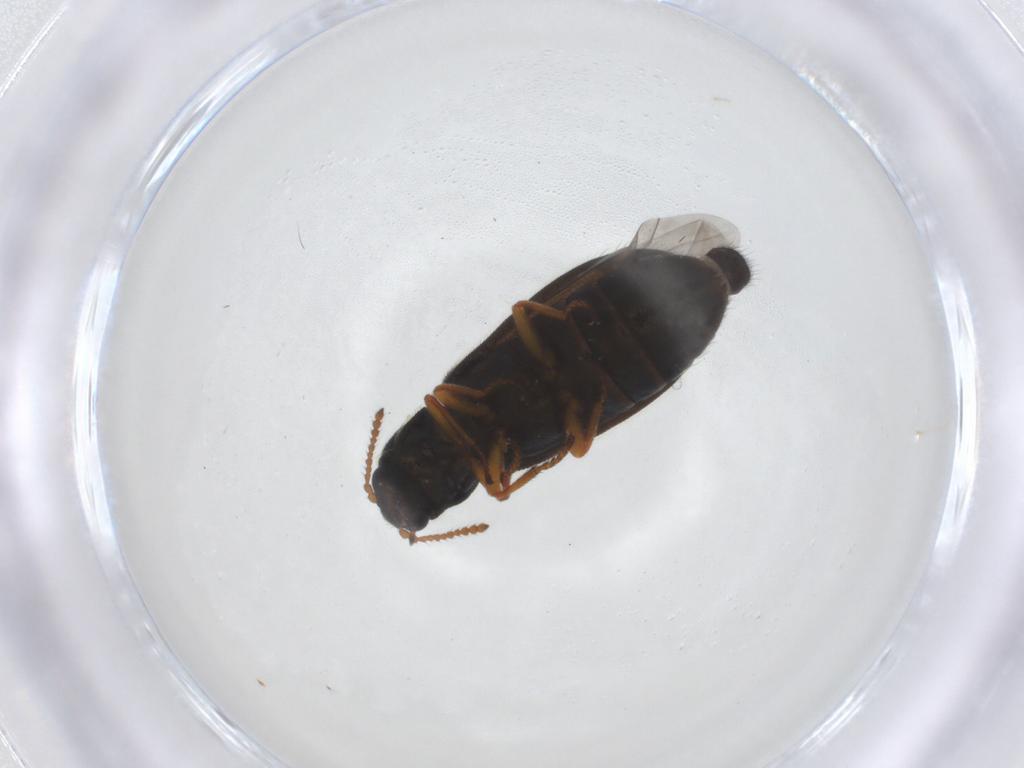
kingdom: Animalia
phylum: Arthropoda
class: Insecta
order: Coleoptera
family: Melyridae
